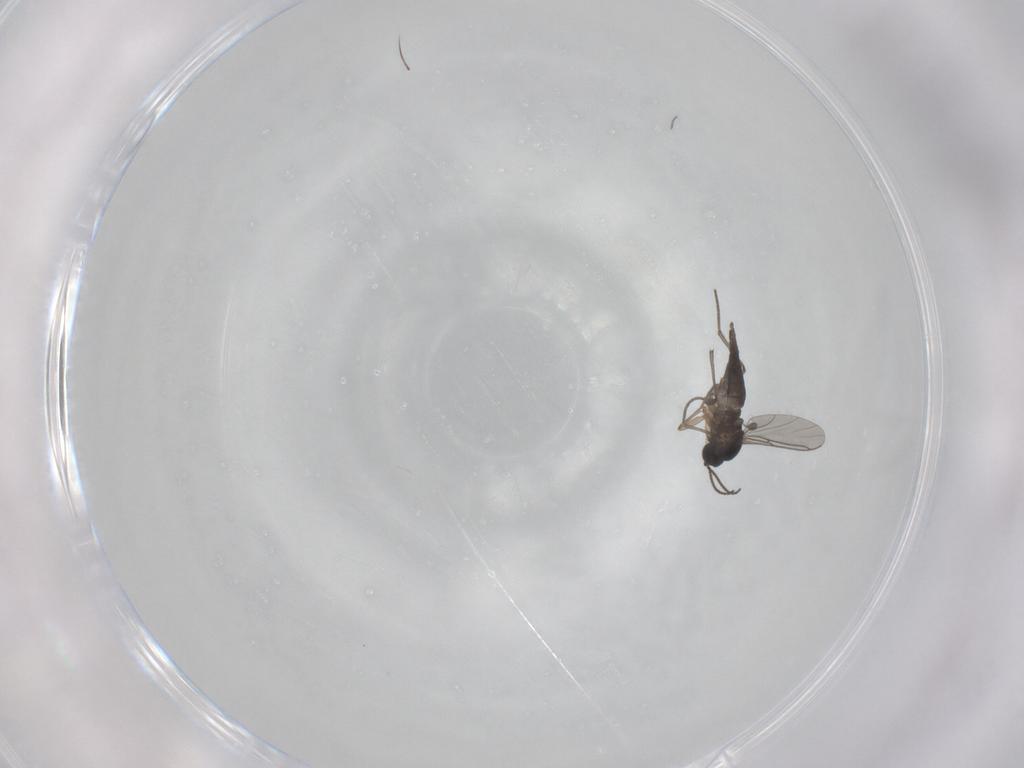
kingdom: Animalia
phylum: Arthropoda
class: Insecta
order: Diptera
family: Sciaridae
